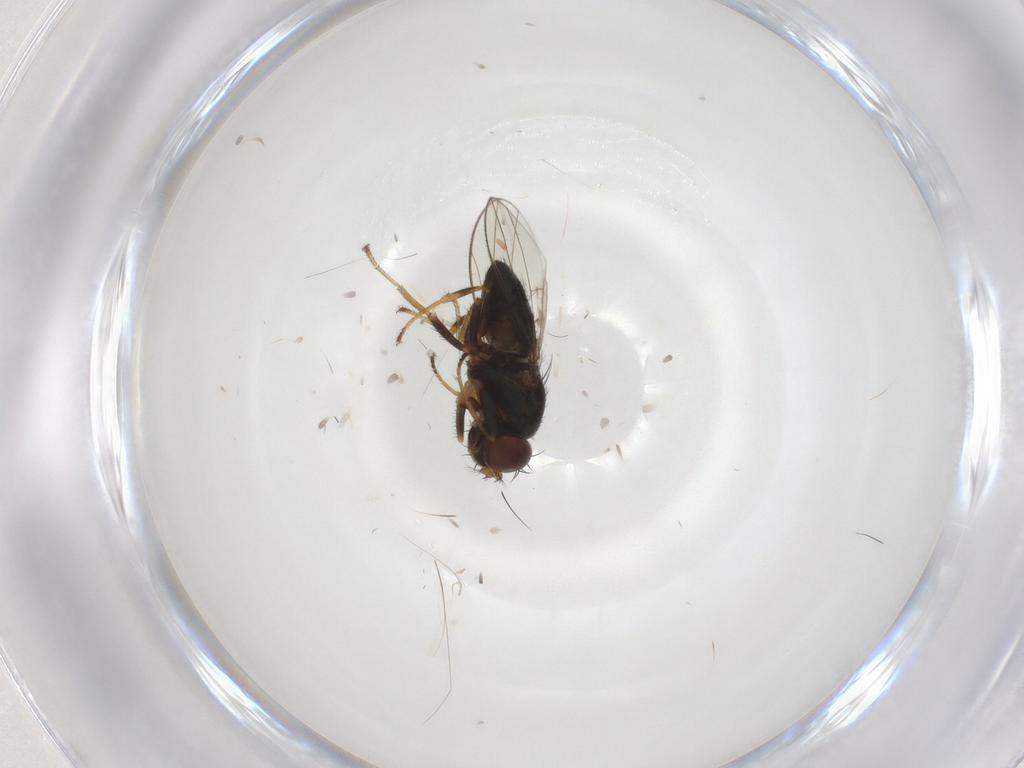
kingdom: Animalia
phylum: Arthropoda
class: Insecta
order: Diptera
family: Ephydridae
